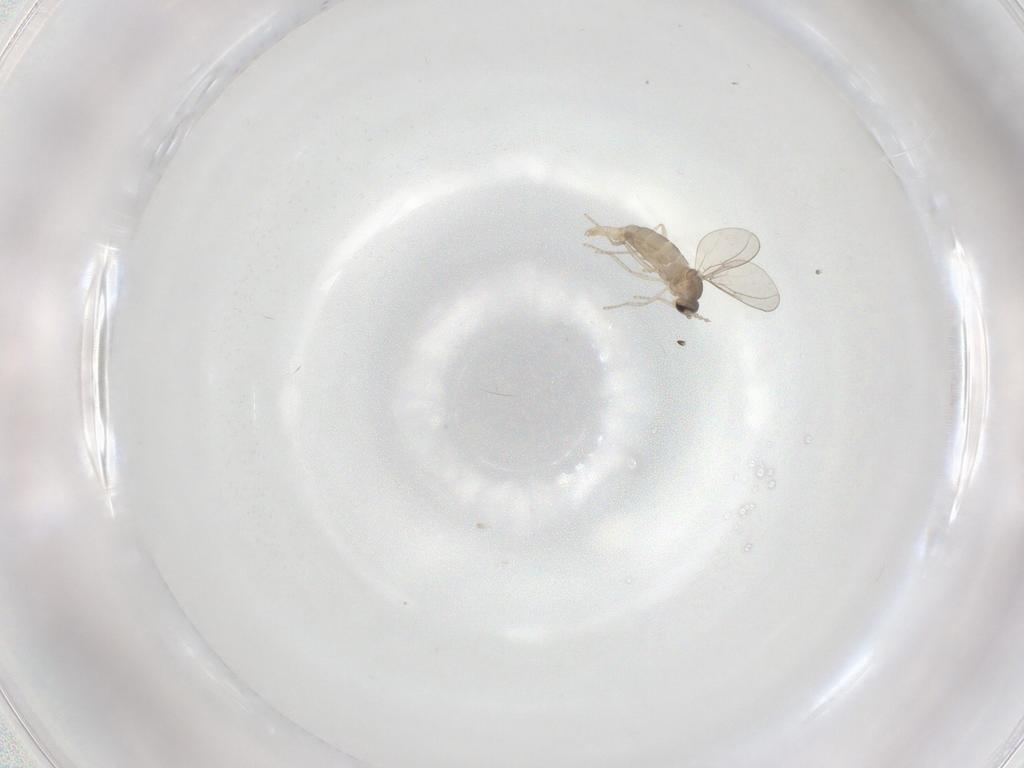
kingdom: Animalia
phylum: Arthropoda
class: Insecta
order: Diptera
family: Cecidomyiidae
